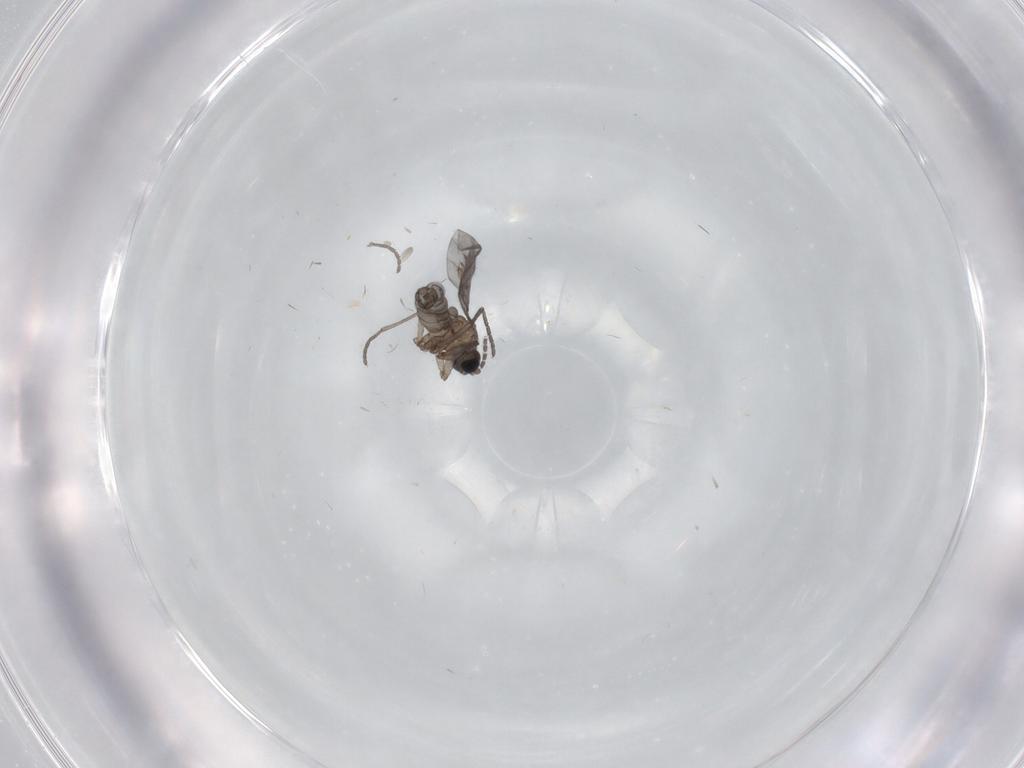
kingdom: Animalia
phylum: Arthropoda
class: Insecta
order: Diptera
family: Sciaridae
